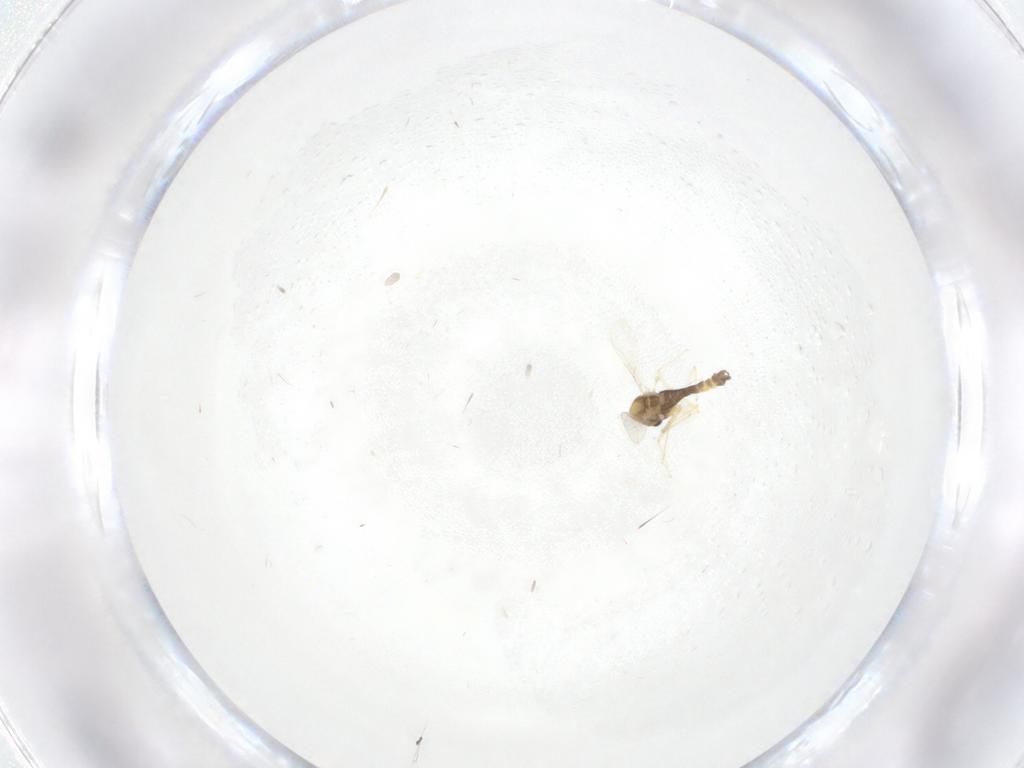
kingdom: Animalia
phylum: Arthropoda
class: Insecta
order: Diptera
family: Chironomidae
